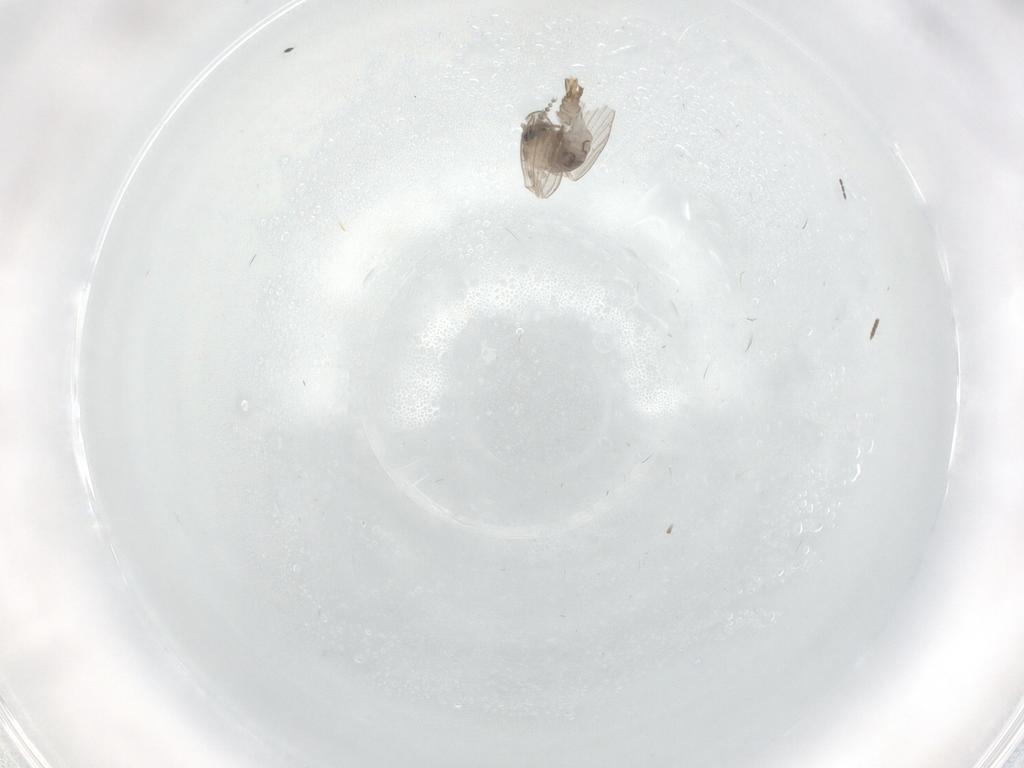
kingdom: Animalia
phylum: Arthropoda
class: Insecta
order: Diptera
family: Psychodidae
